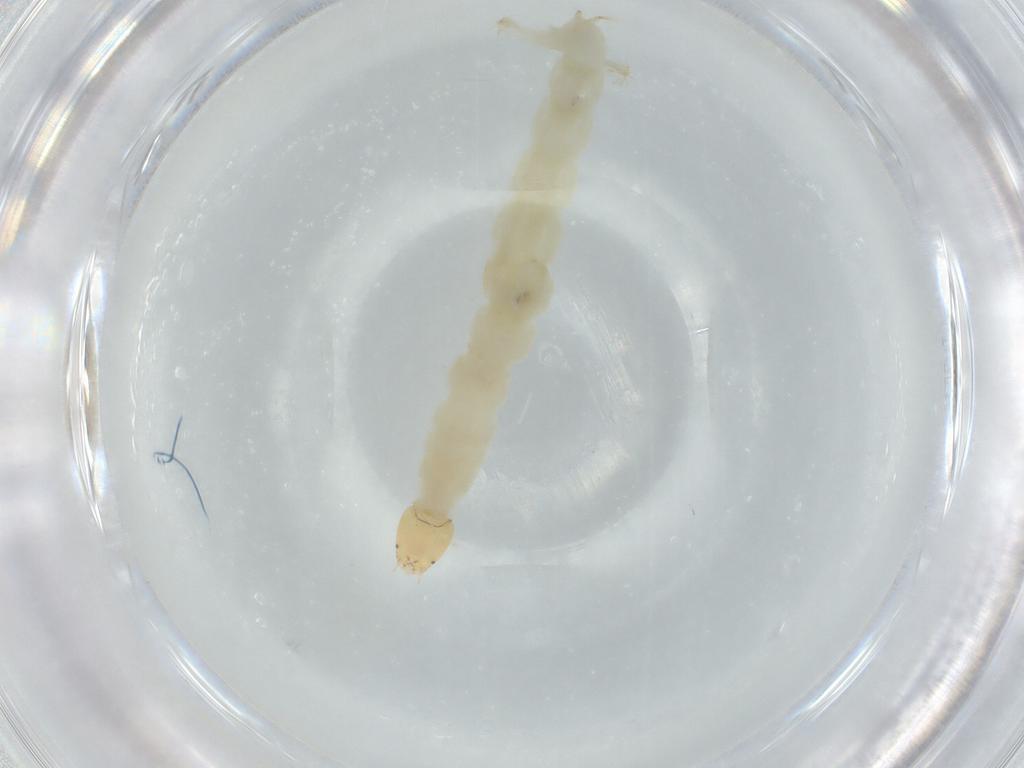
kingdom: Animalia
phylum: Arthropoda
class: Insecta
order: Diptera
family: Chironomidae
